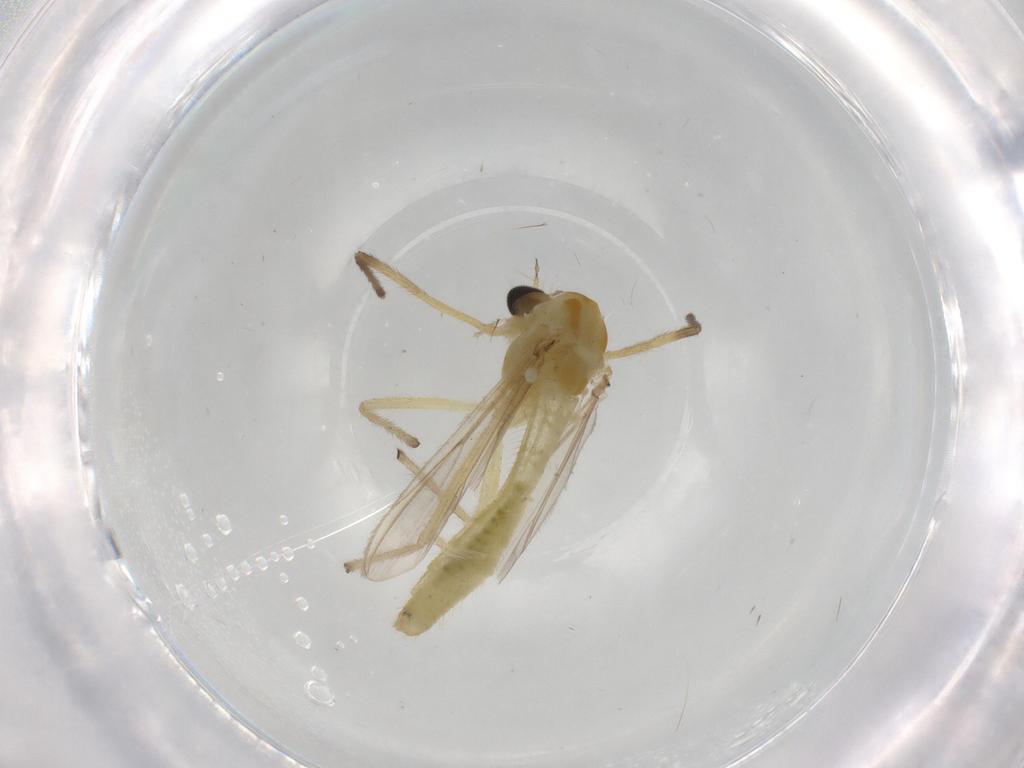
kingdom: Animalia
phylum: Arthropoda
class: Insecta
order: Diptera
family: Chironomidae
